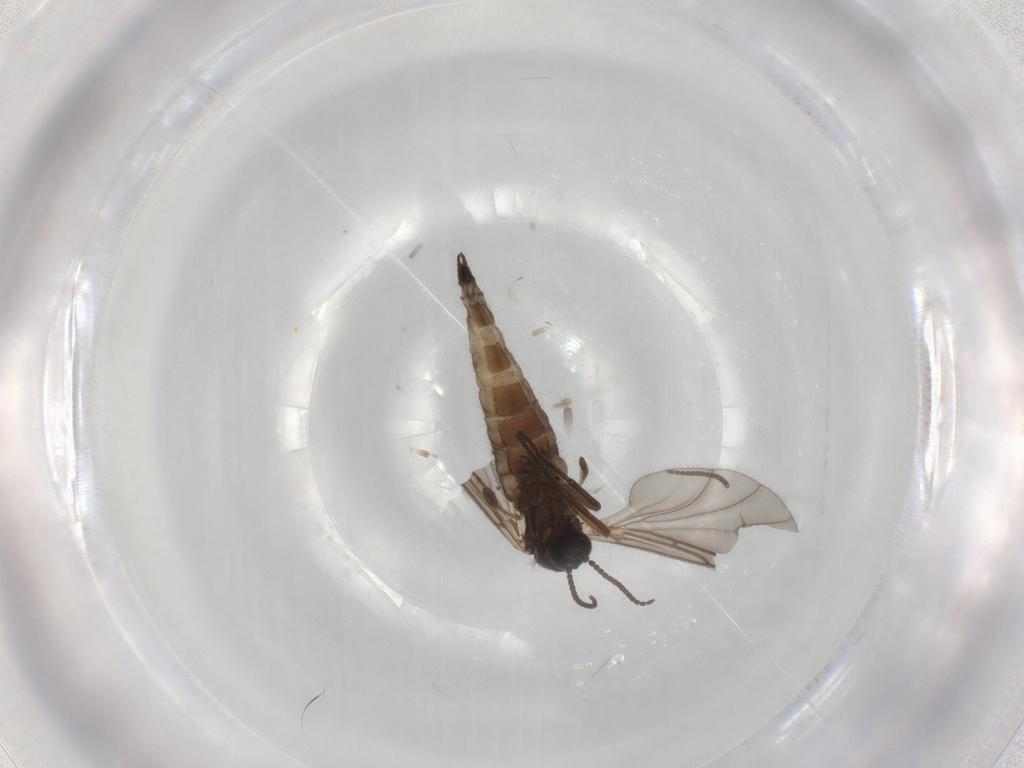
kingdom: Animalia
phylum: Arthropoda
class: Insecta
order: Diptera
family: Sciaridae
